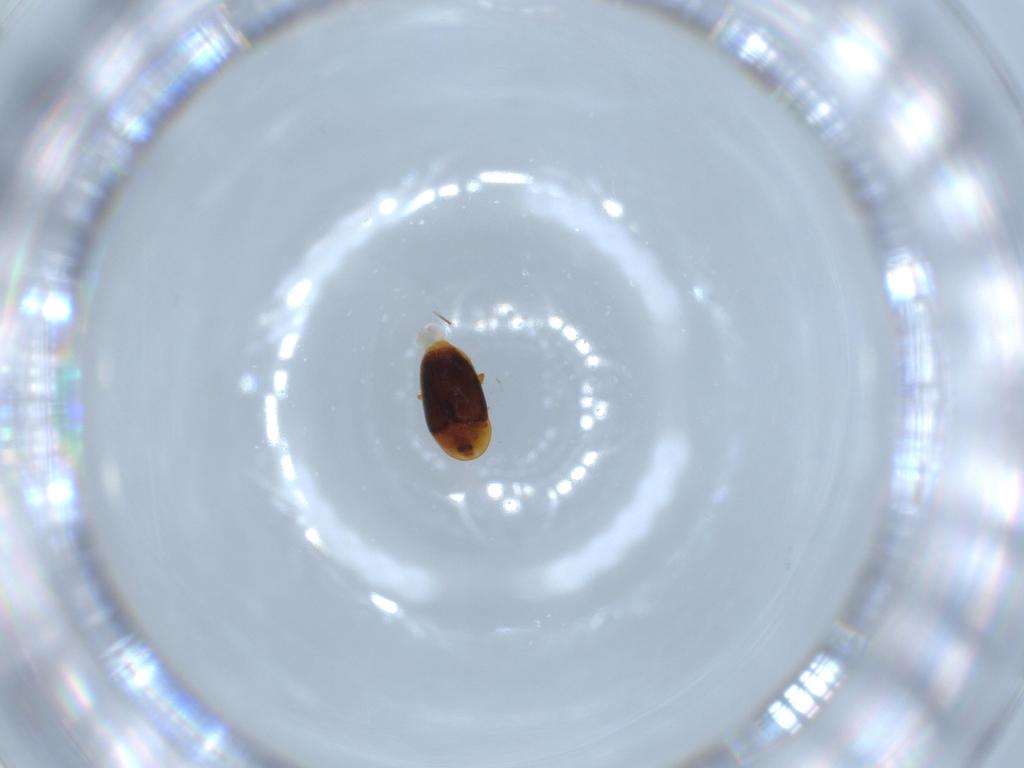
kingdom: Animalia
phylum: Arthropoda
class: Insecta
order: Coleoptera
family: Bostrichidae
